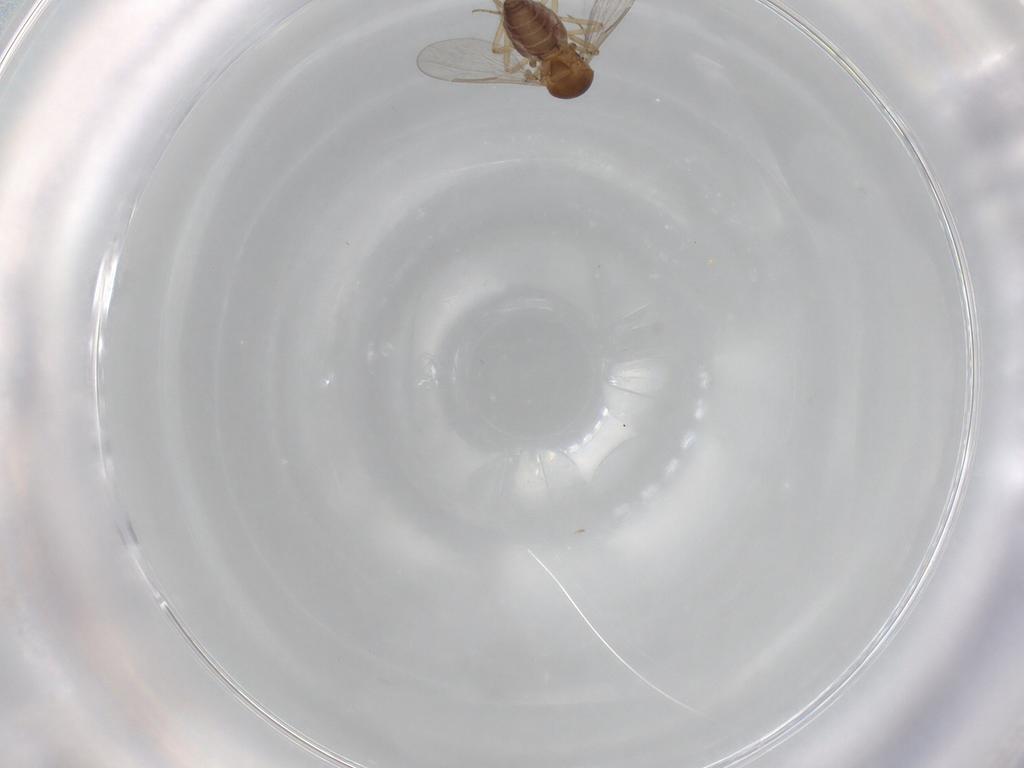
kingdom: Animalia
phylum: Arthropoda
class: Insecta
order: Diptera
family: Ceratopogonidae
